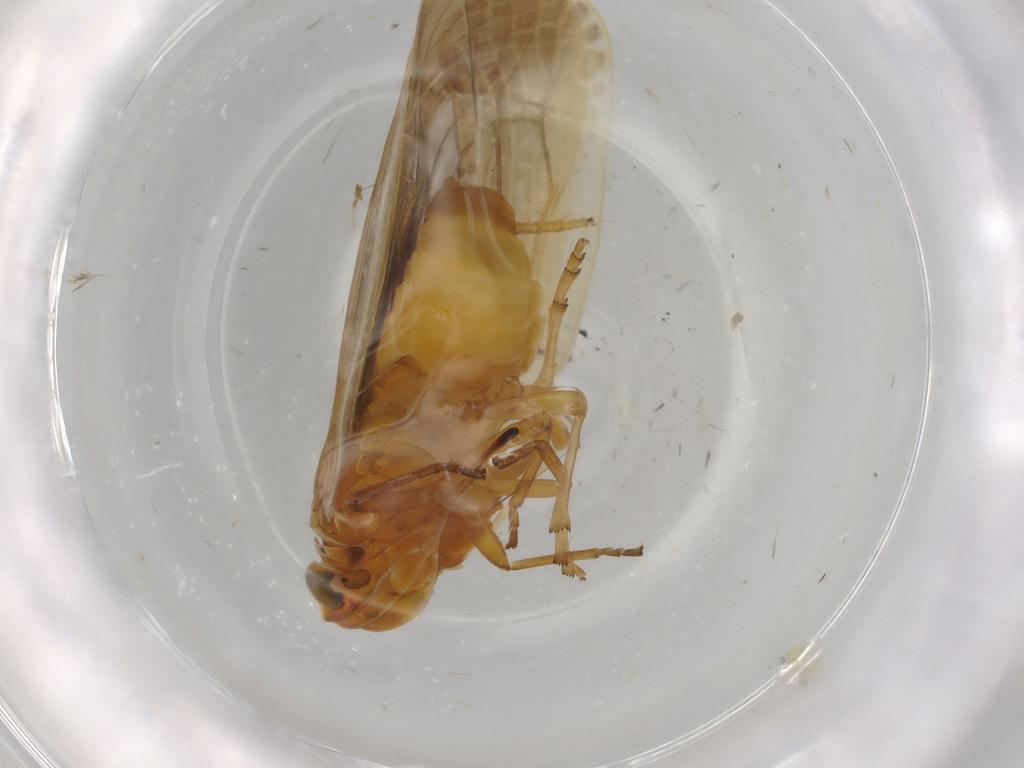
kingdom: Animalia
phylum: Arthropoda
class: Insecta
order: Hemiptera
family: Achilidae
